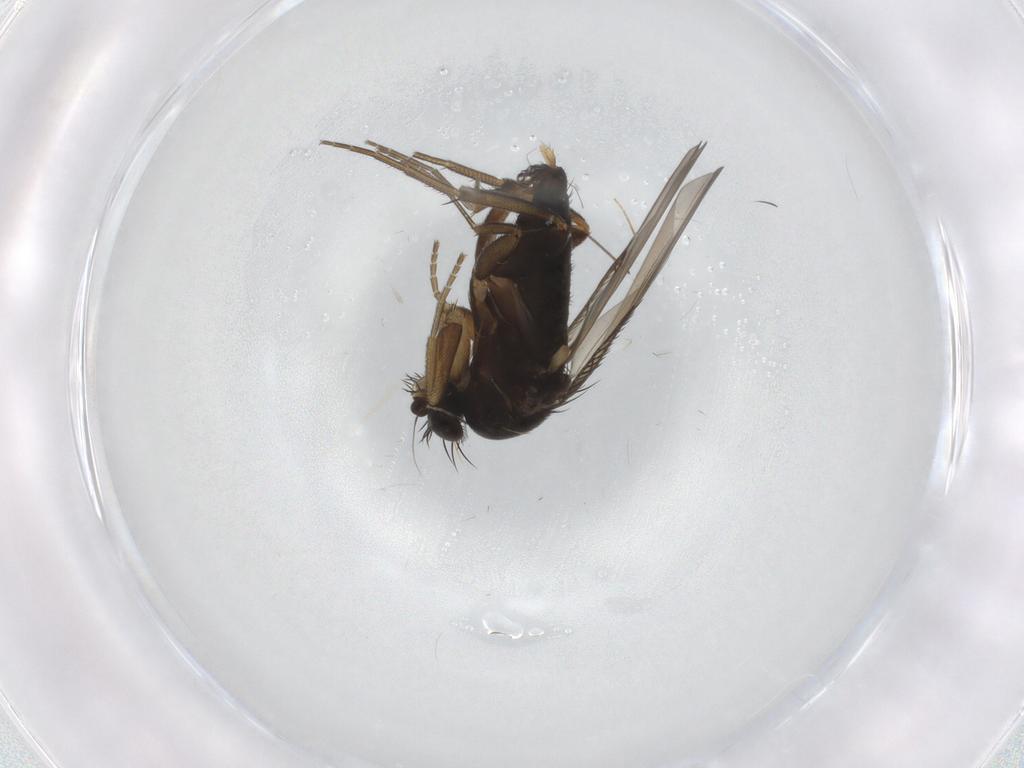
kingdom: Animalia
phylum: Arthropoda
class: Insecta
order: Diptera
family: Phoridae
